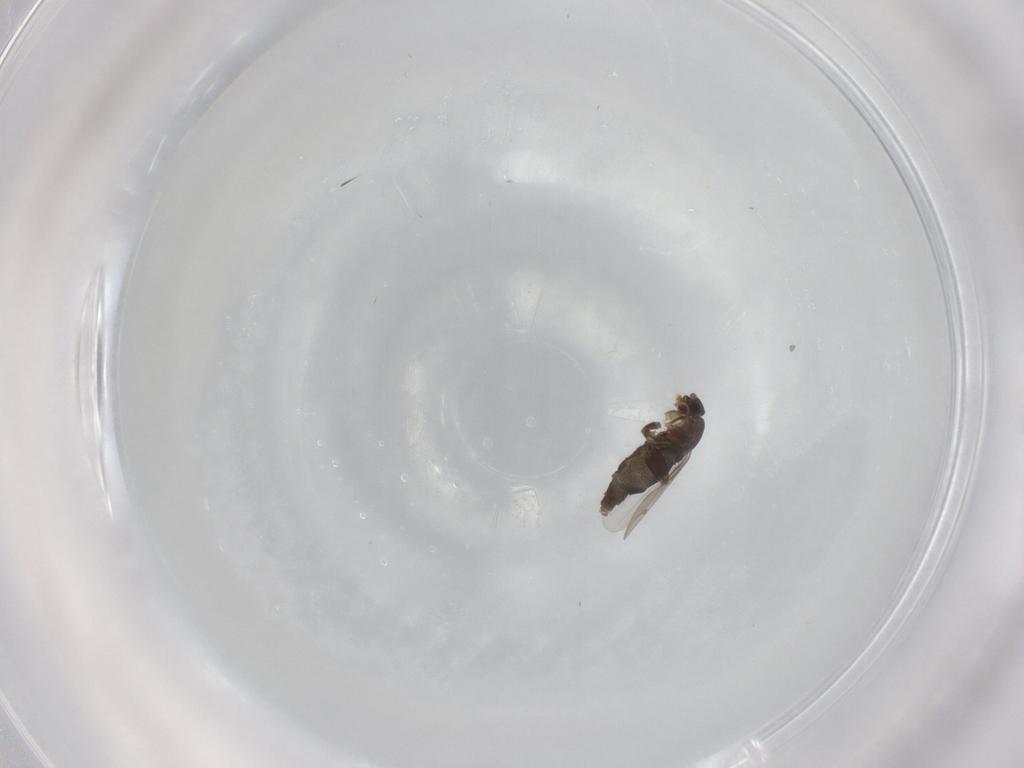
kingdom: Animalia
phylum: Arthropoda
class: Insecta
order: Diptera
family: Phoridae
